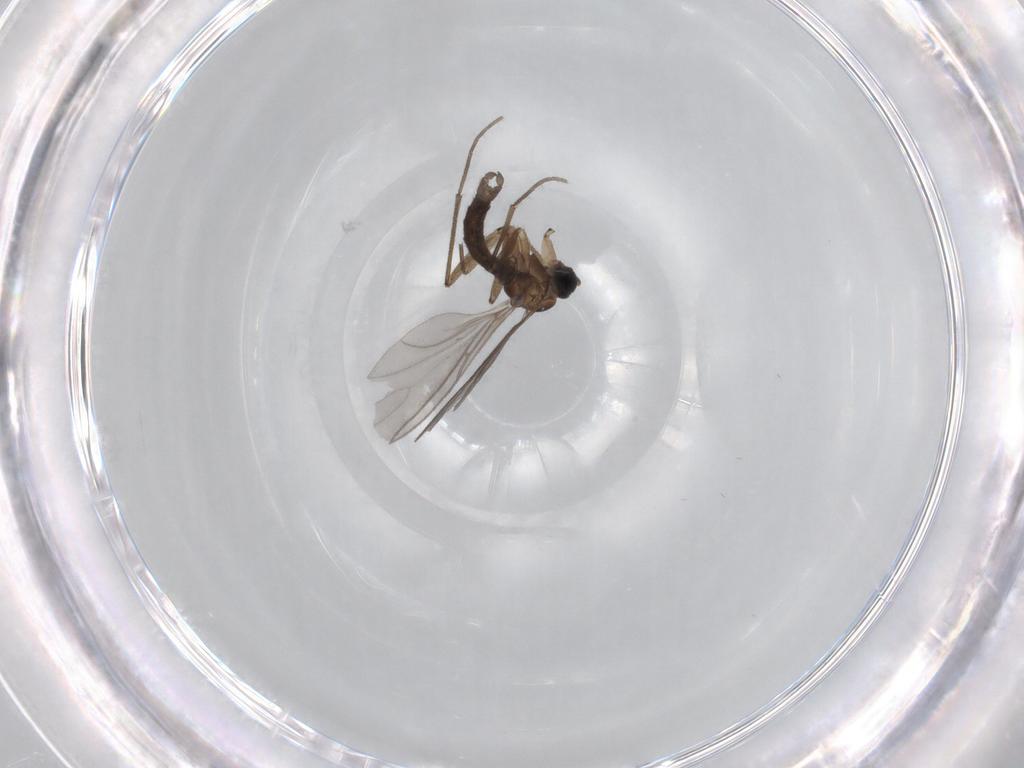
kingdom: Animalia
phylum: Arthropoda
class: Insecta
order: Diptera
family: Sciaridae
